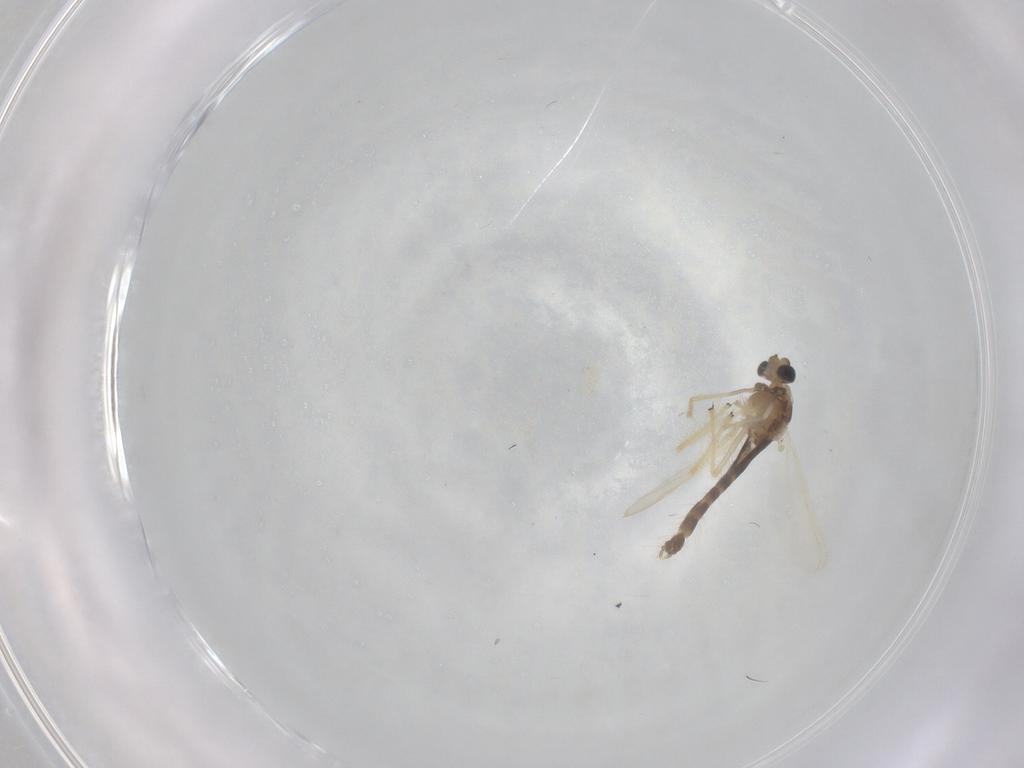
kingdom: Animalia
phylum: Arthropoda
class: Insecta
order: Diptera
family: Chironomidae
